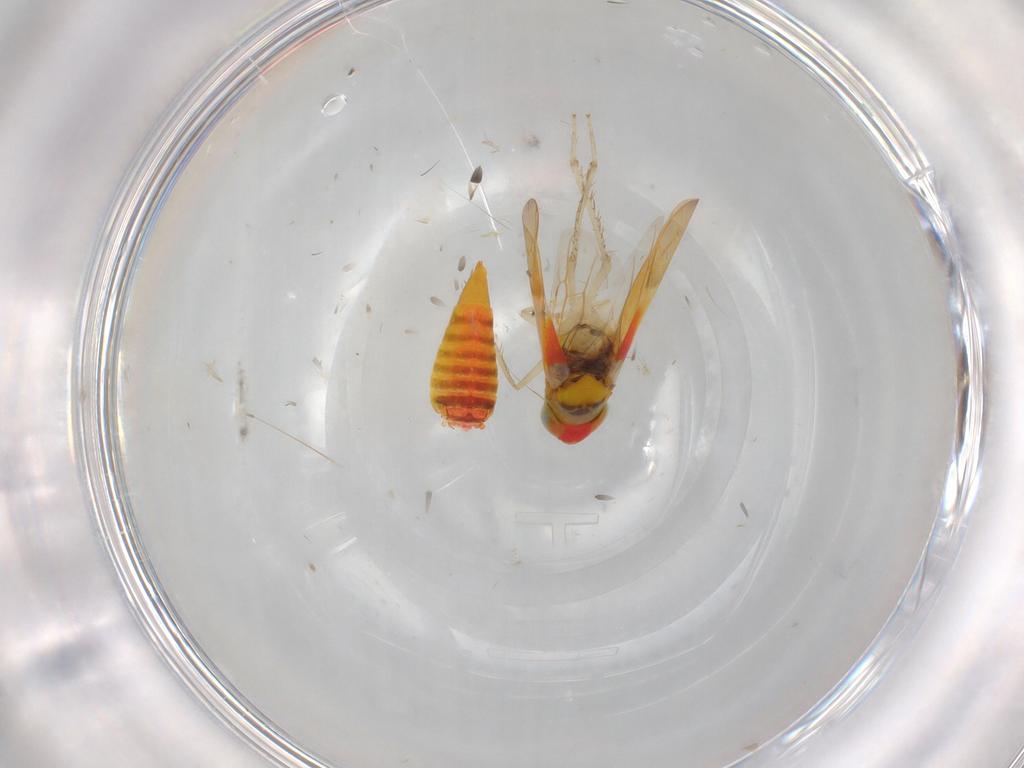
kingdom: Animalia
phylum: Arthropoda
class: Insecta
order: Hemiptera
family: Cicadellidae
